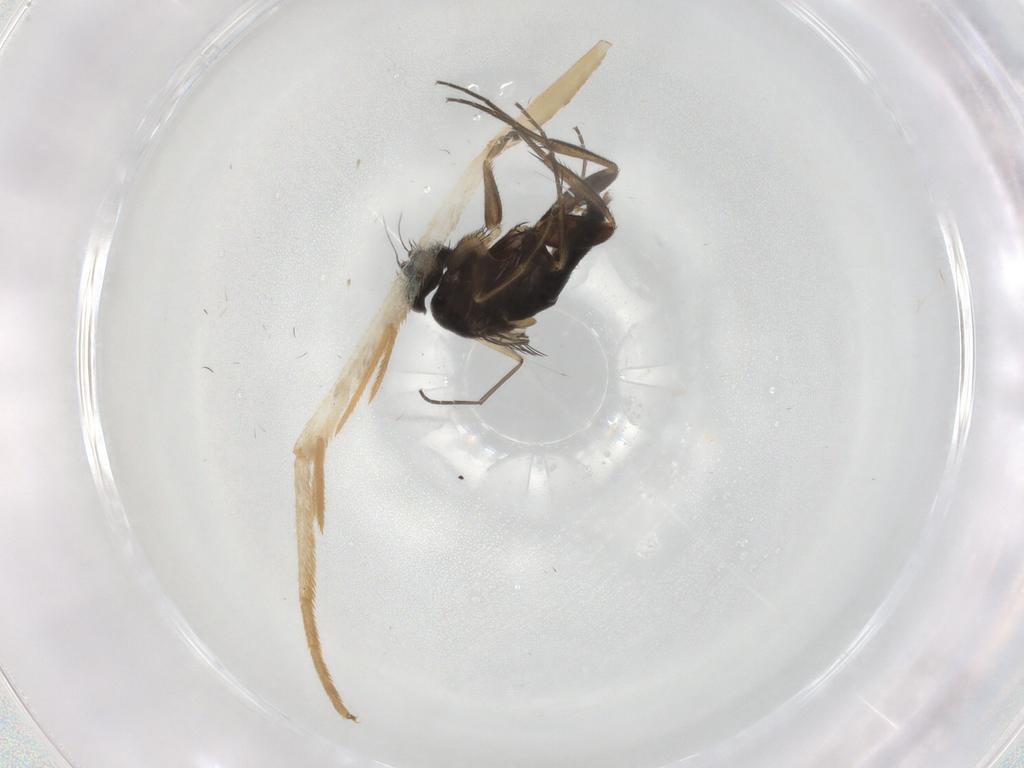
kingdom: Animalia
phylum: Arthropoda
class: Insecta
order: Diptera
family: Phoridae
